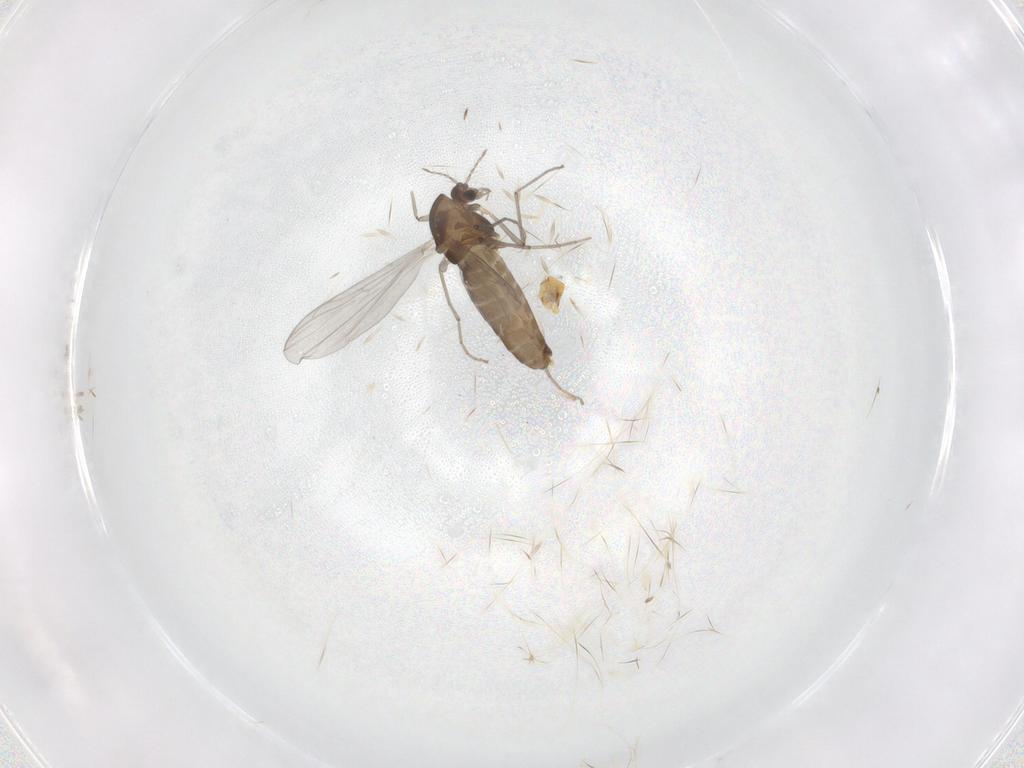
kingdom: Animalia
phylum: Arthropoda
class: Insecta
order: Diptera
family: Chironomidae
